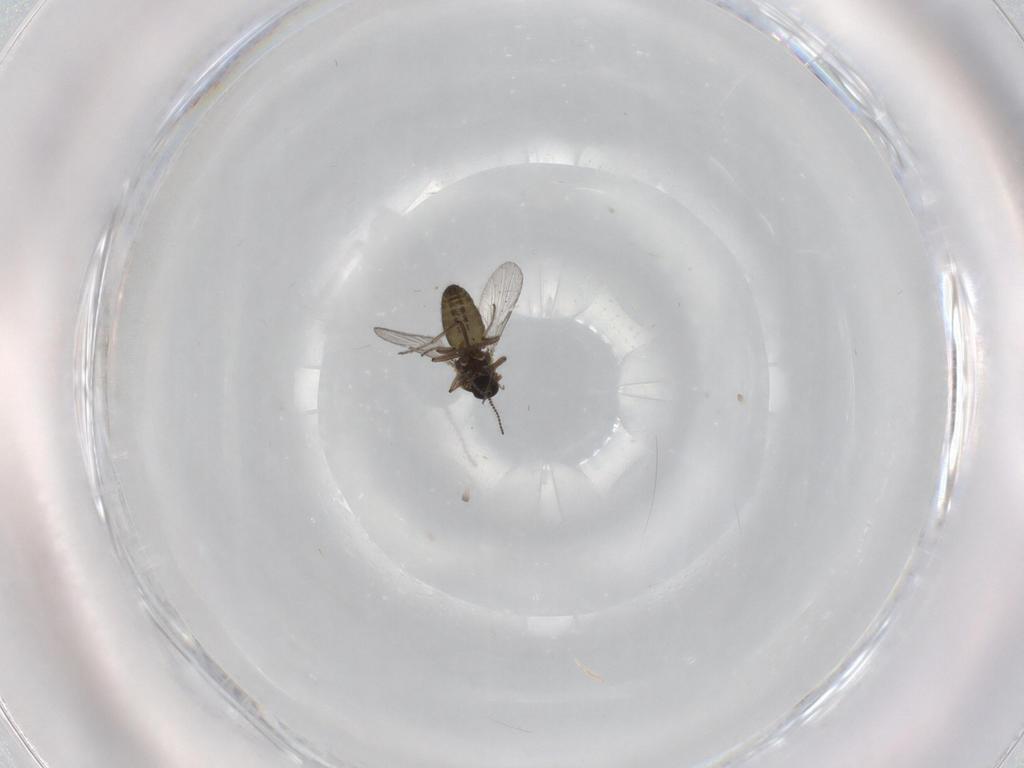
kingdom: Animalia
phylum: Arthropoda
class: Insecta
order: Diptera
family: Ceratopogonidae
